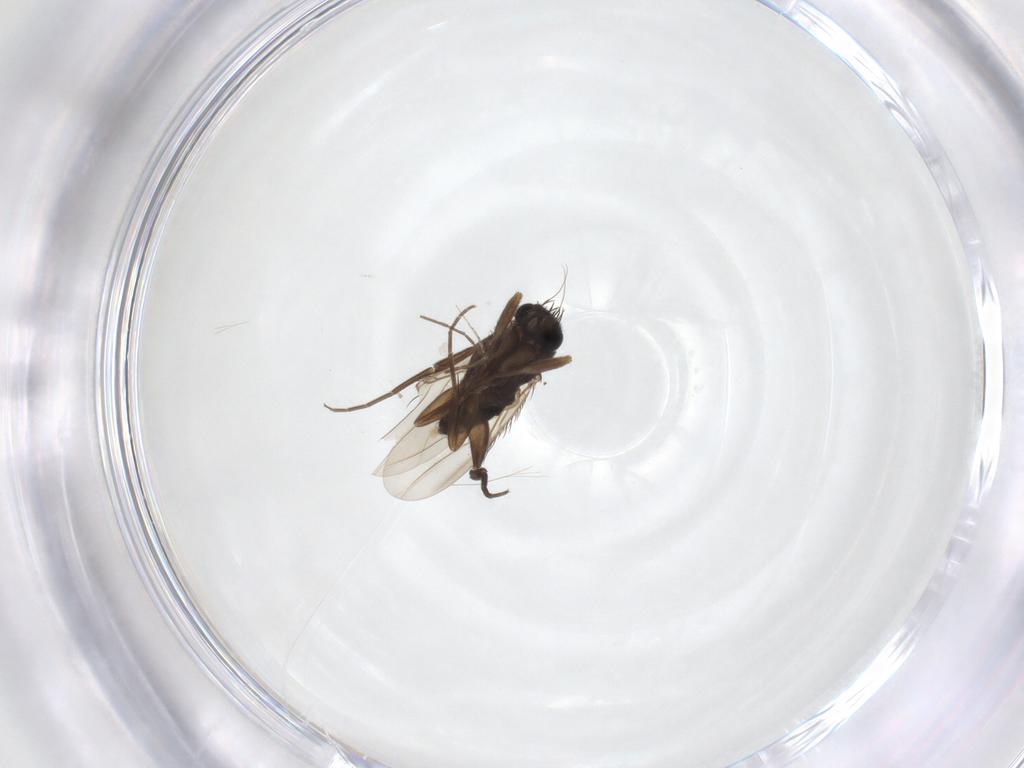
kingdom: Animalia
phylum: Arthropoda
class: Insecta
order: Diptera
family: Phoridae
